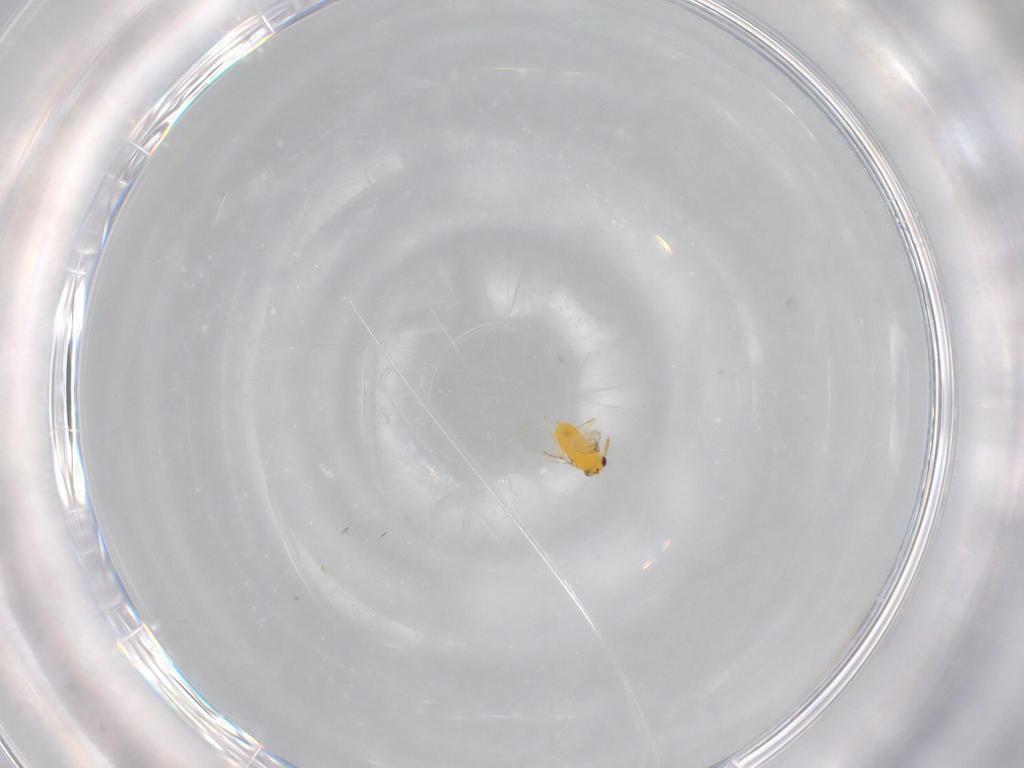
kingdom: Animalia
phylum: Arthropoda
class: Insecta
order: Hymenoptera
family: Aphelinidae
